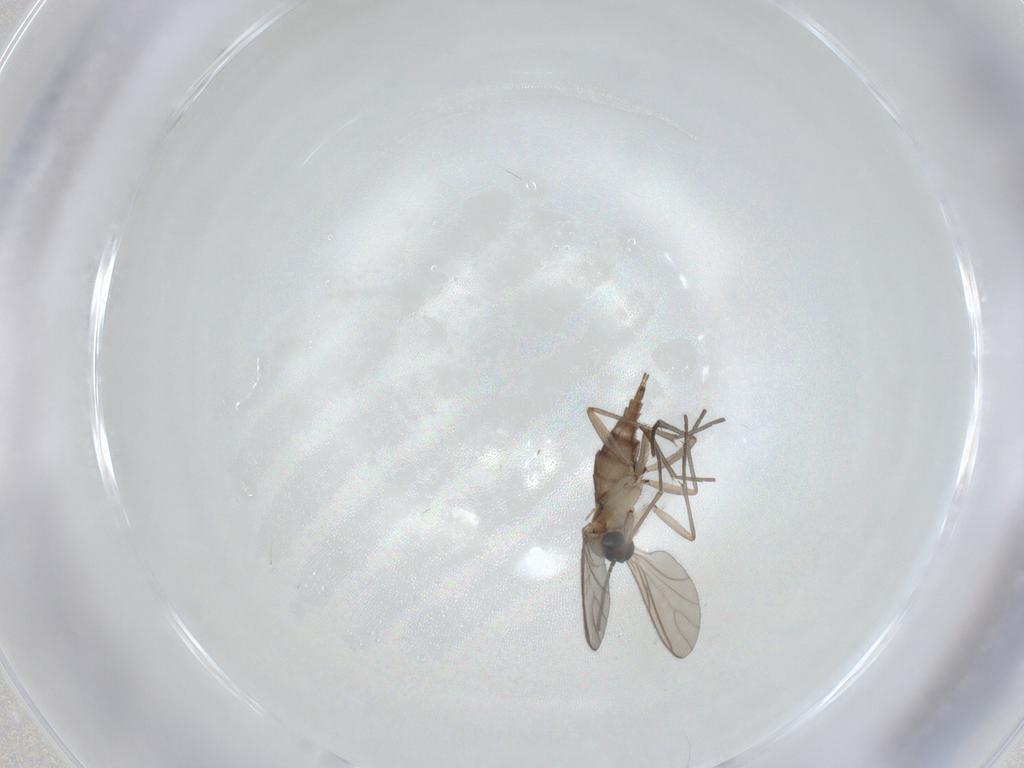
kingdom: Animalia
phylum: Arthropoda
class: Insecta
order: Diptera
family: Sciaridae
